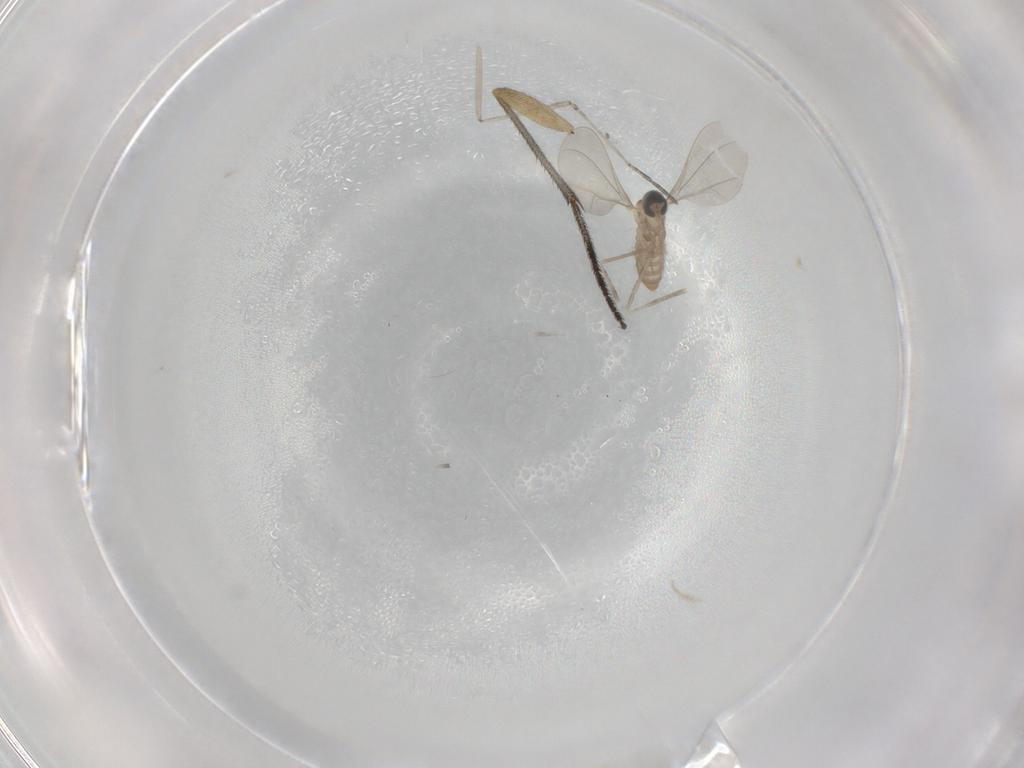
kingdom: Animalia
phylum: Arthropoda
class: Insecta
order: Diptera
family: Cecidomyiidae
